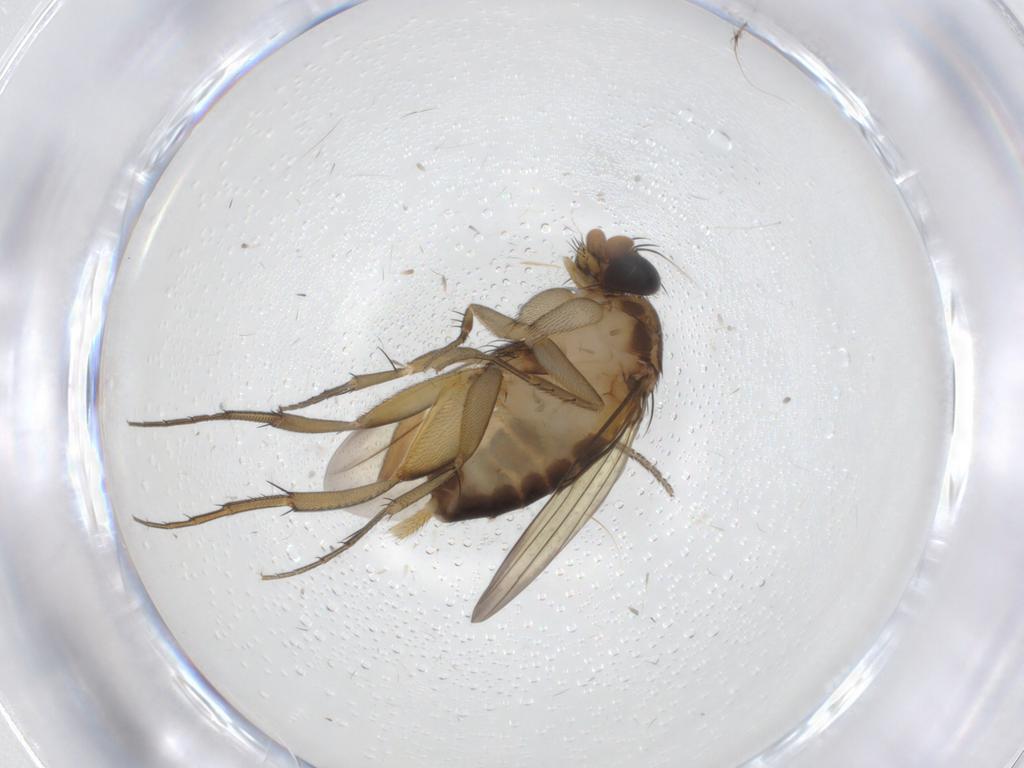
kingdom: Animalia
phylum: Arthropoda
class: Insecta
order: Diptera
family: Phoridae
